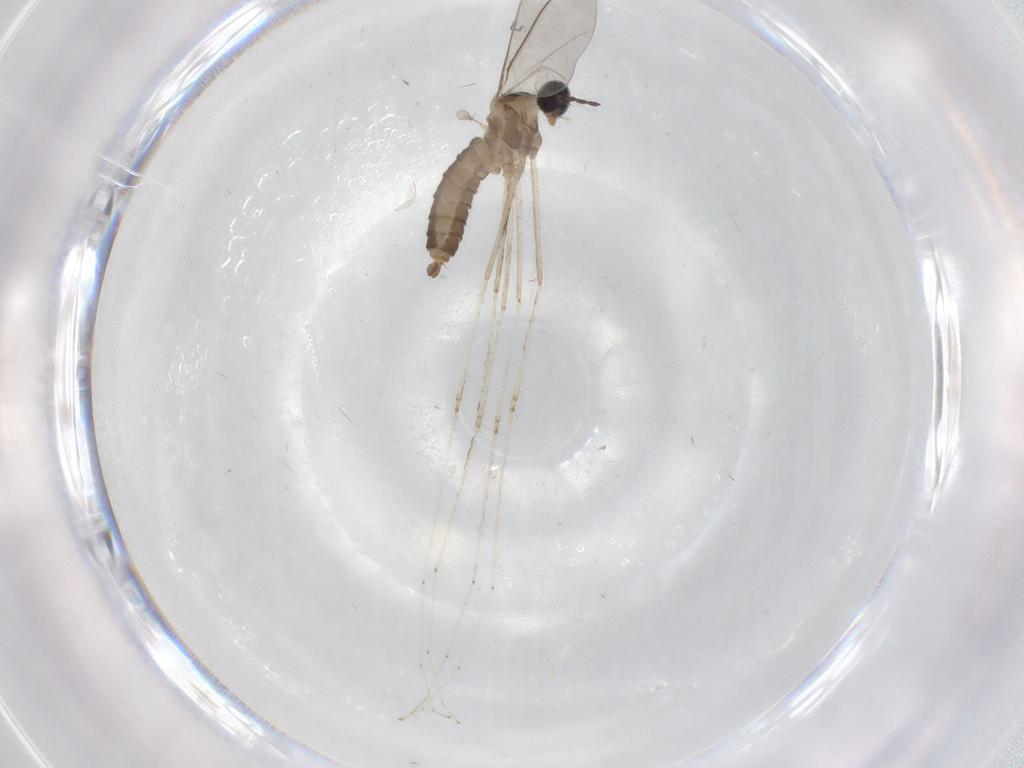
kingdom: Animalia
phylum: Arthropoda
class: Insecta
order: Diptera
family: Cecidomyiidae
